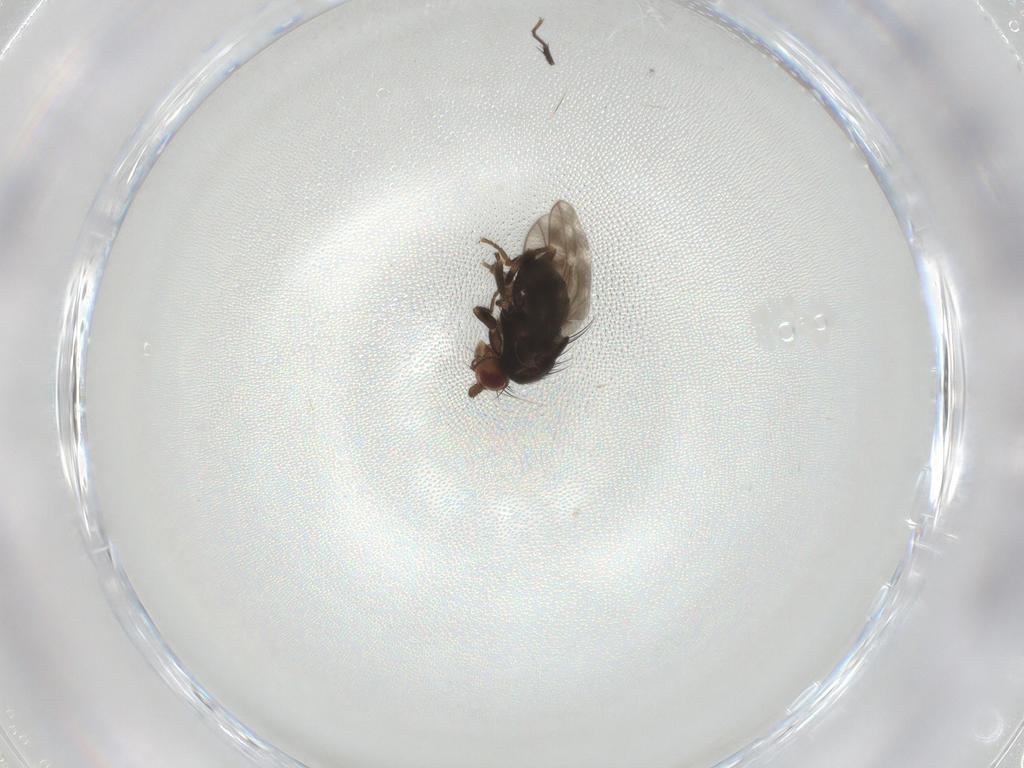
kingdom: Animalia
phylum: Arthropoda
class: Insecta
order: Diptera
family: Sphaeroceridae
